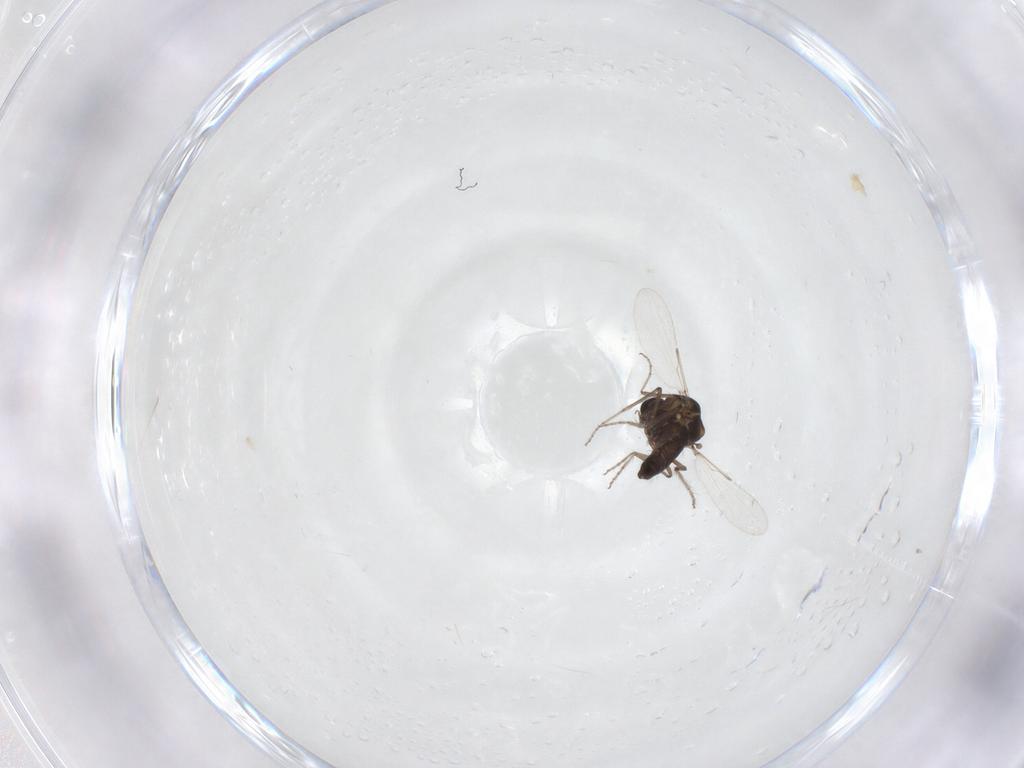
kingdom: Animalia
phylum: Arthropoda
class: Insecta
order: Diptera
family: Ceratopogonidae
